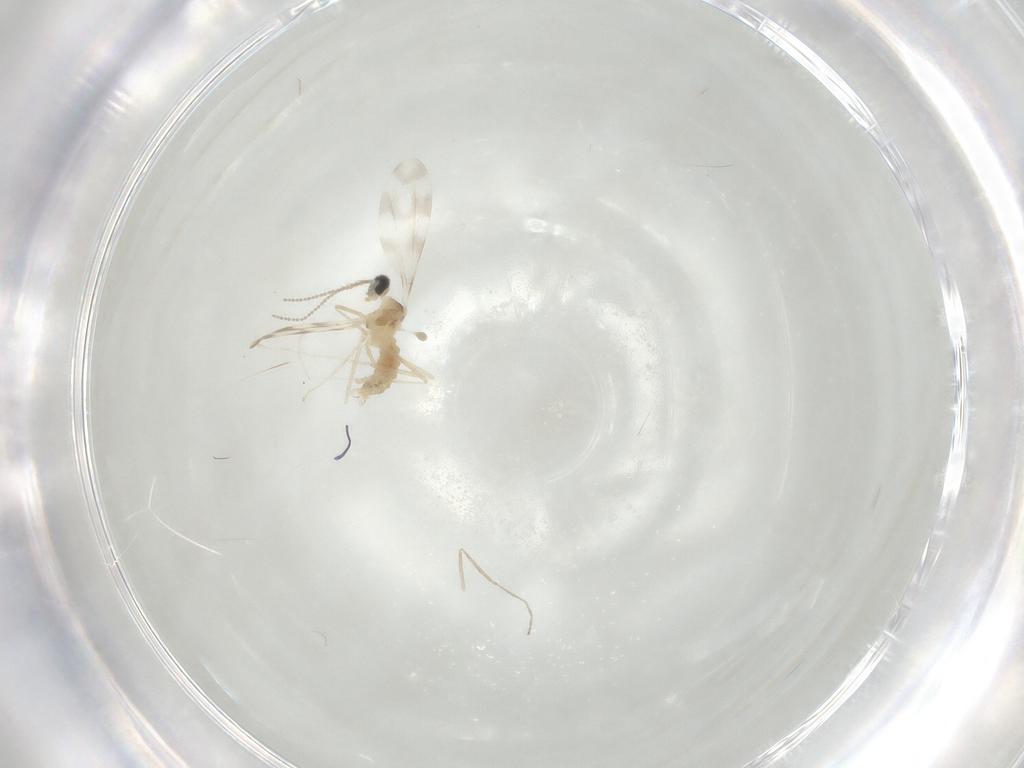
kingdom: Animalia
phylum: Arthropoda
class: Insecta
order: Diptera
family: Cecidomyiidae
